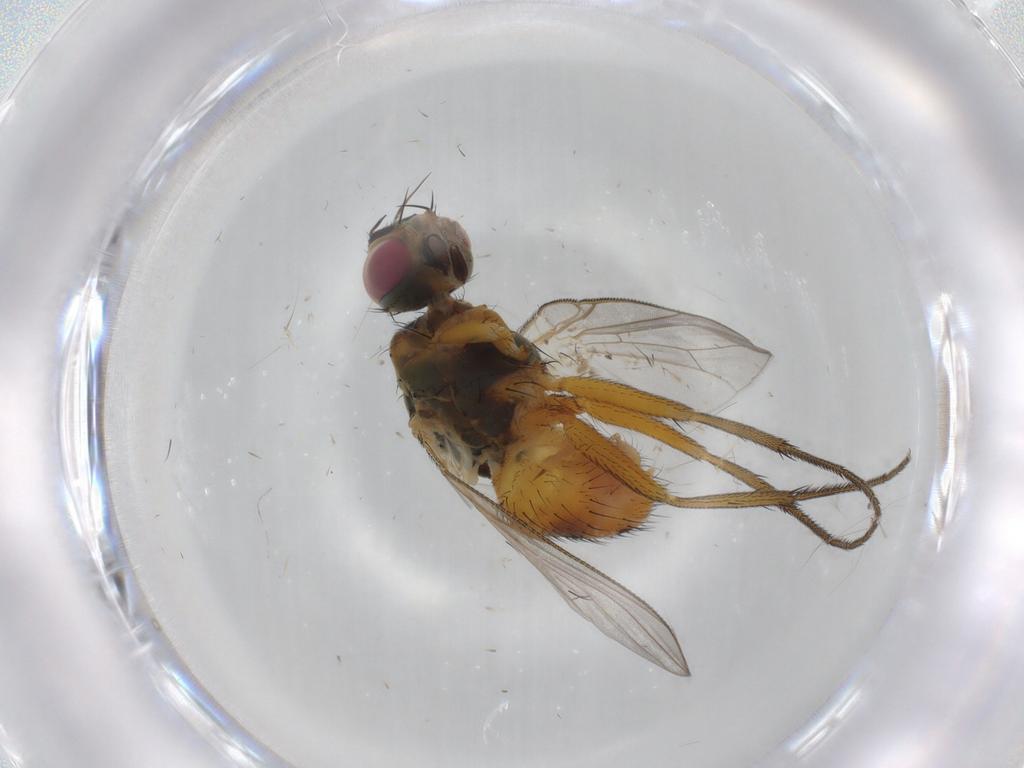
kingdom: Animalia
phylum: Arthropoda
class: Insecta
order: Diptera
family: Muscidae
